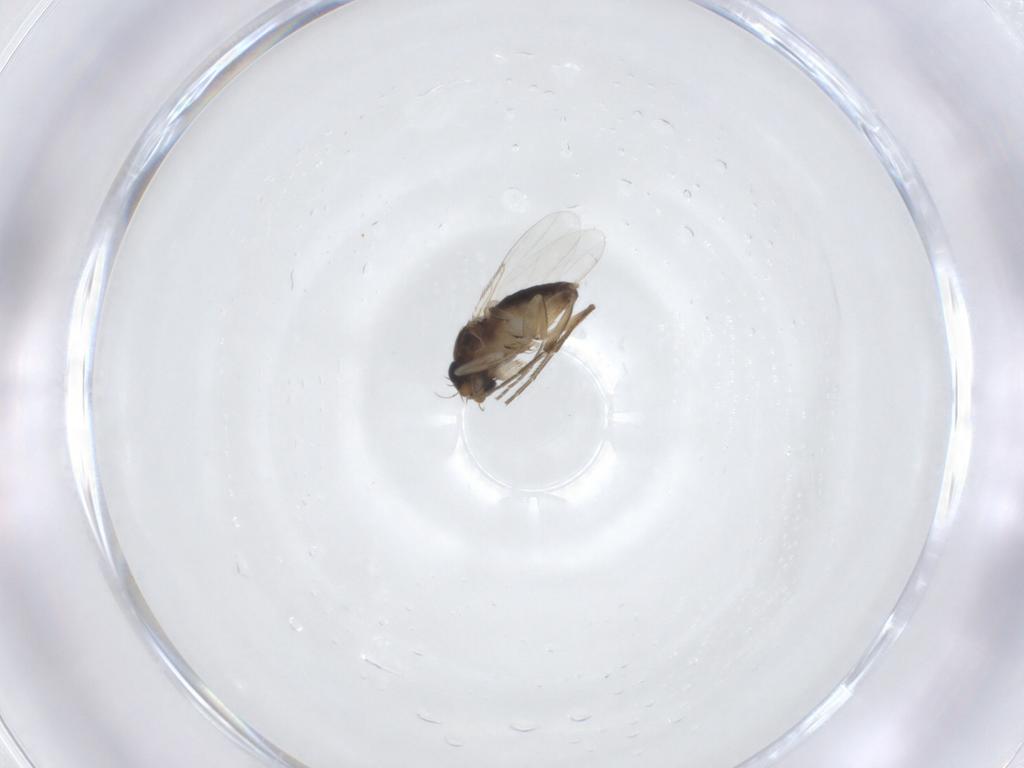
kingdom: Animalia
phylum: Arthropoda
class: Insecta
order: Diptera
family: Phoridae
